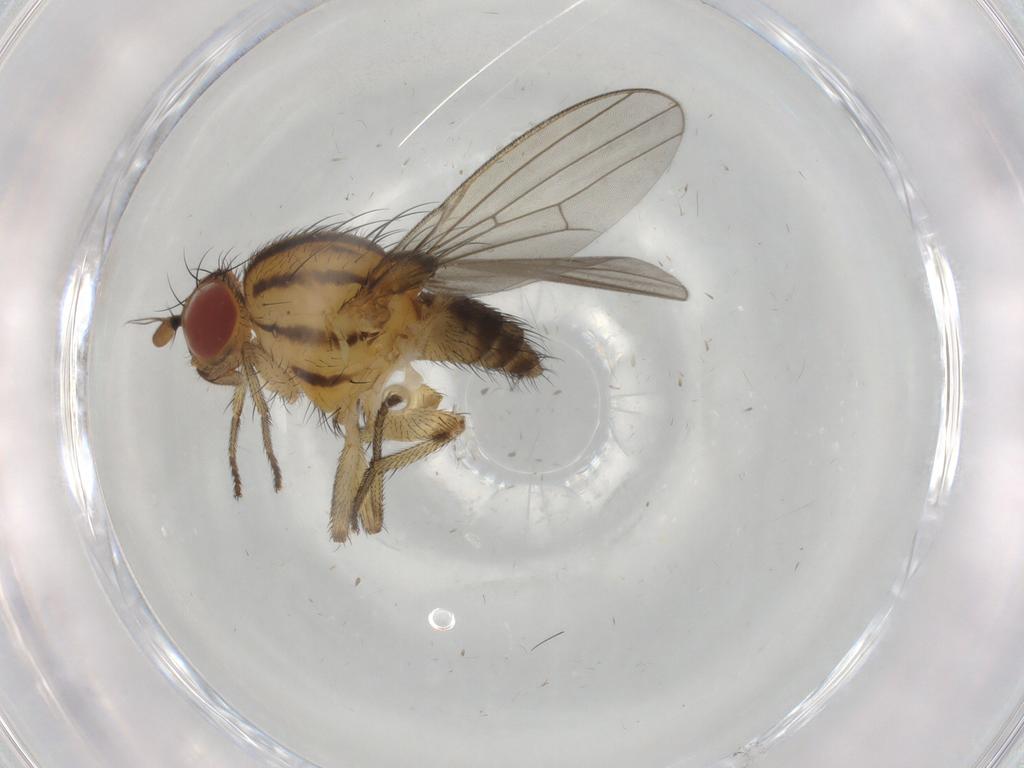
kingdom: Animalia
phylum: Arthropoda
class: Insecta
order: Diptera
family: Lauxaniidae
